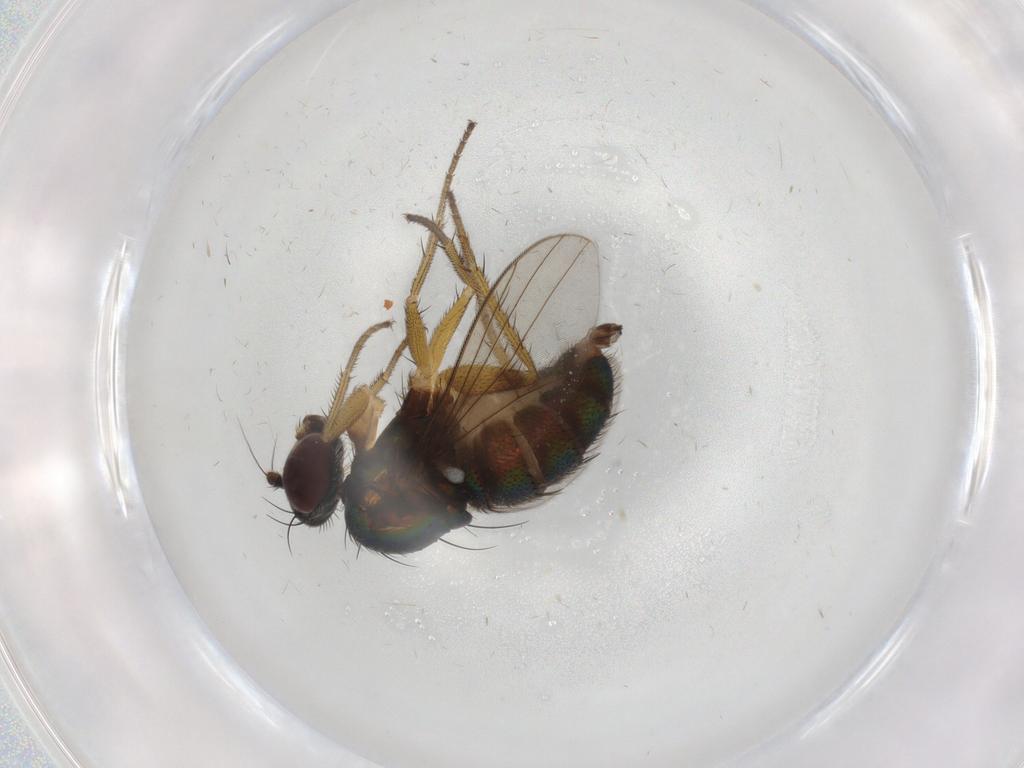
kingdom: Animalia
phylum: Arthropoda
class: Insecta
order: Diptera
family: Dolichopodidae
